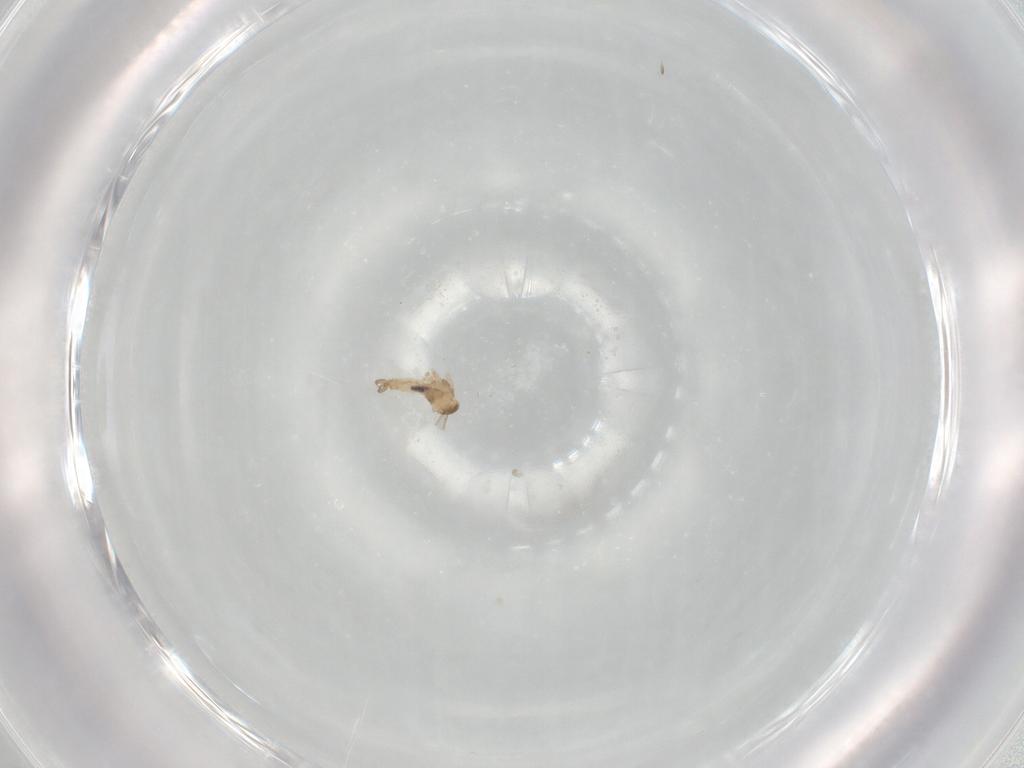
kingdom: Animalia
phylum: Arthropoda
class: Insecta
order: Diptera
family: Cecidomyiidae
